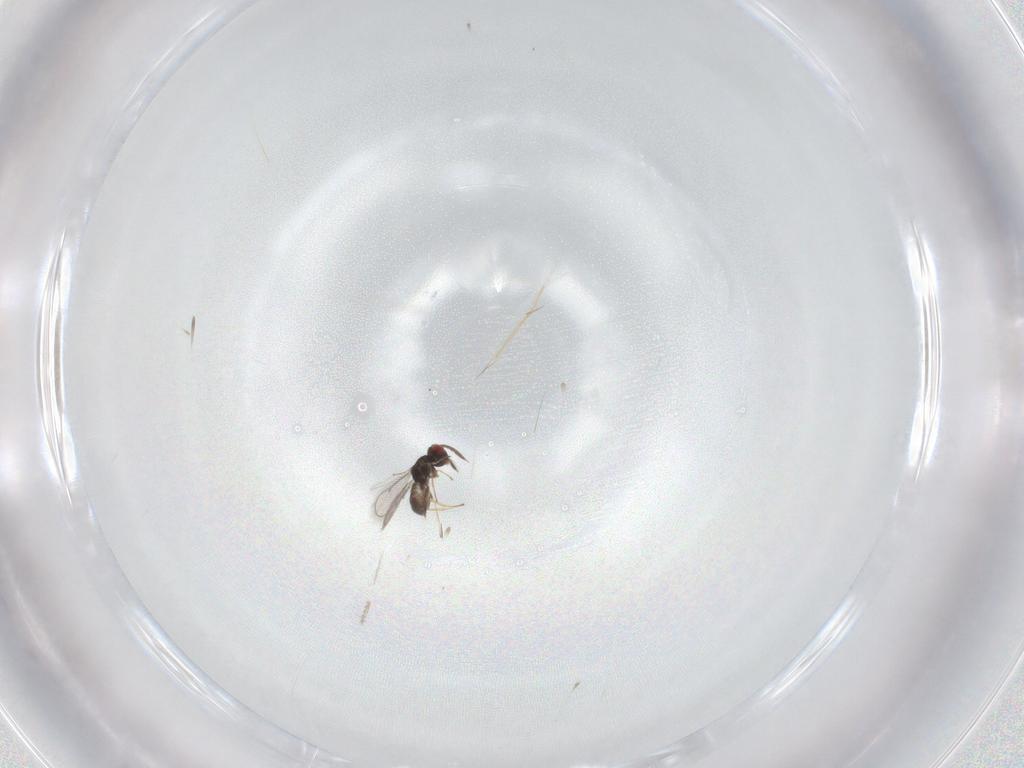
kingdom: Animalia
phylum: Arthropoda
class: Insecta
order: Hymenoptera
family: Eulophidae
